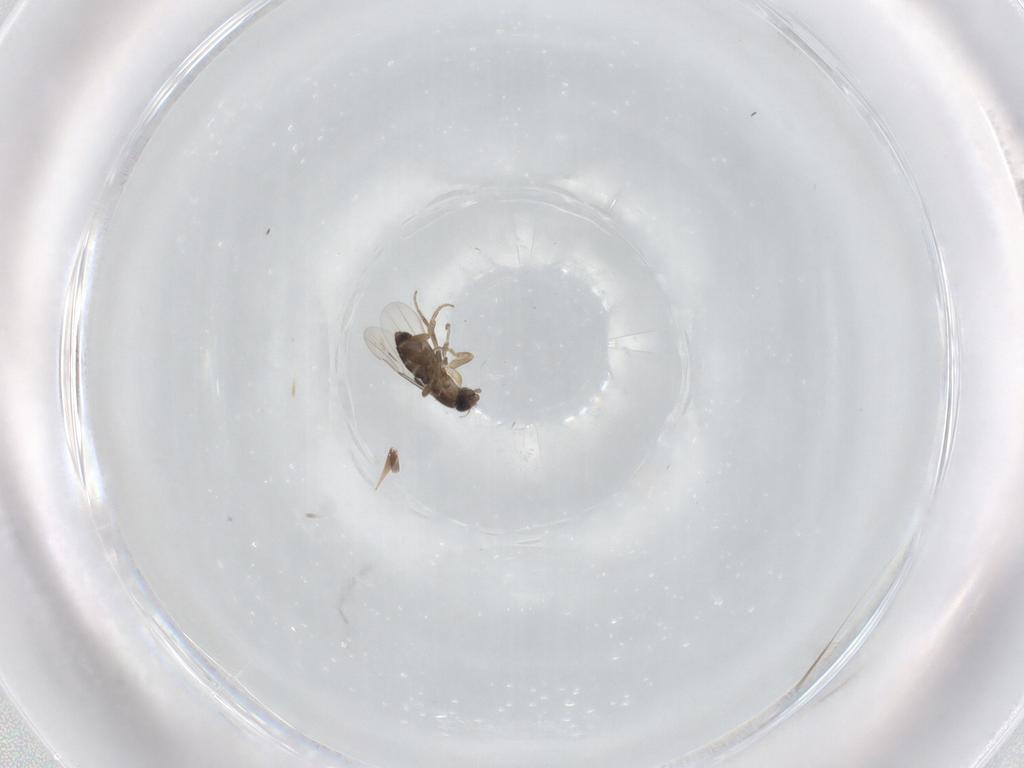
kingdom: Animalia
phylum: Arthropoda
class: Insecta
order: Diptera
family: Phoridae
